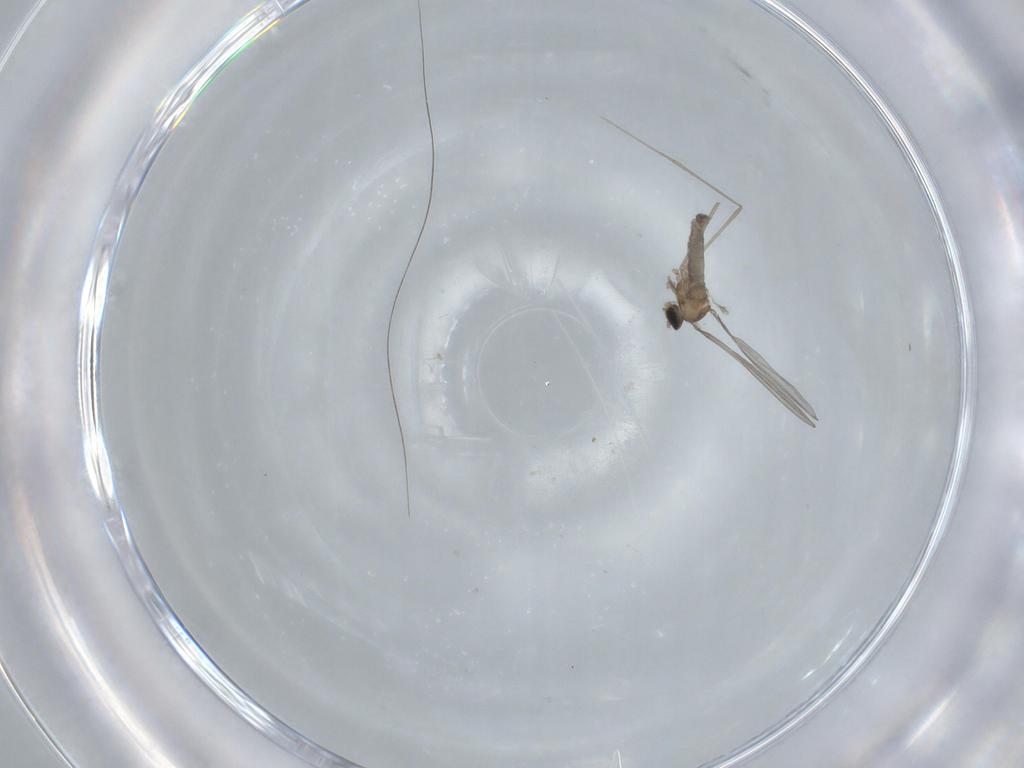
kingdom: Animalia
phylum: Arthropoda
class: Insecta
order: Diptera
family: Cecidomyiidae
